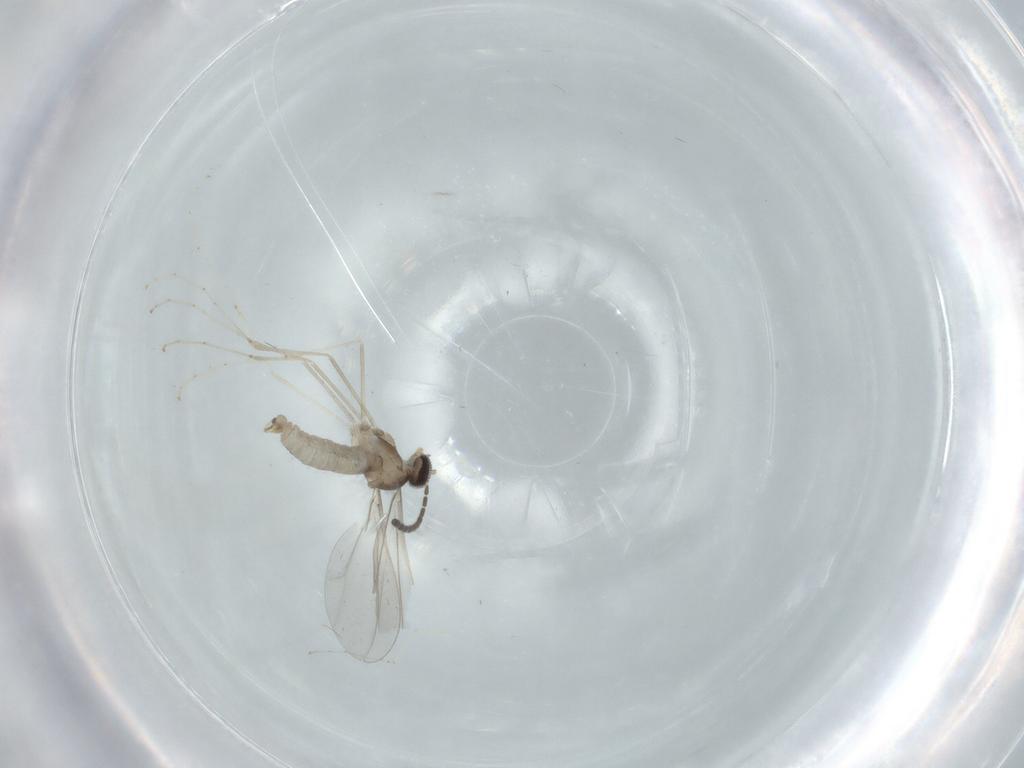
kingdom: Animalia
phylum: Arthropoda
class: Insecta
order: Diptera
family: Cecidomyiidae
